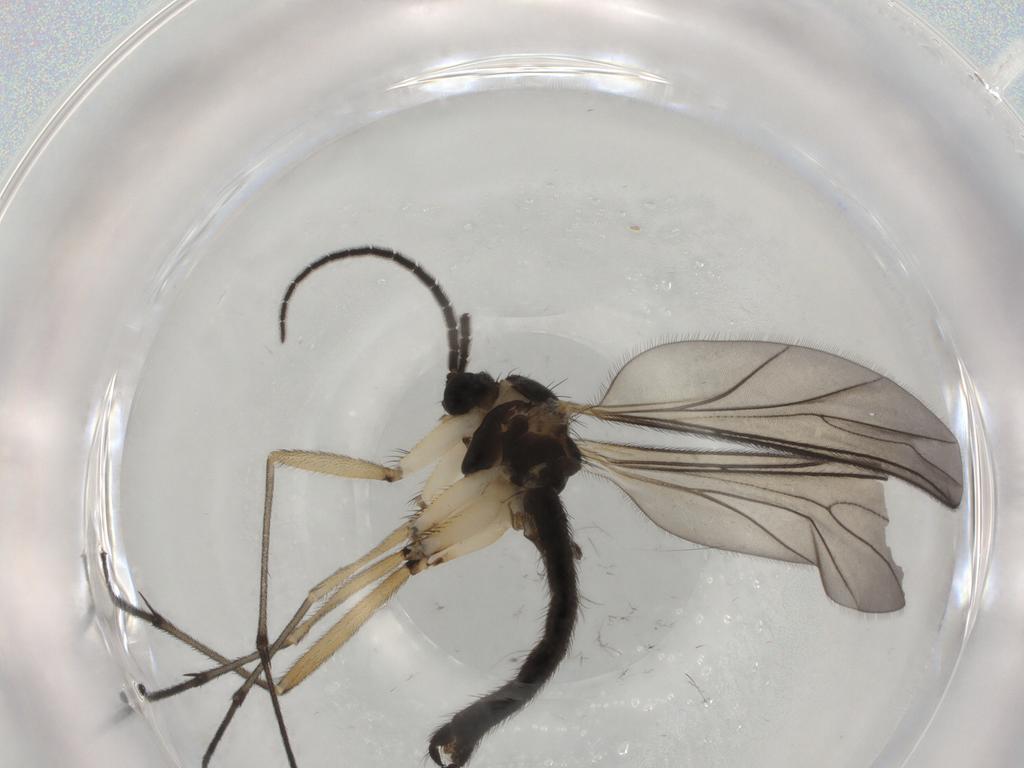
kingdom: Animalia
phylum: Arthropoda
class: Insecta
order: Diptera
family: Hybotidae
